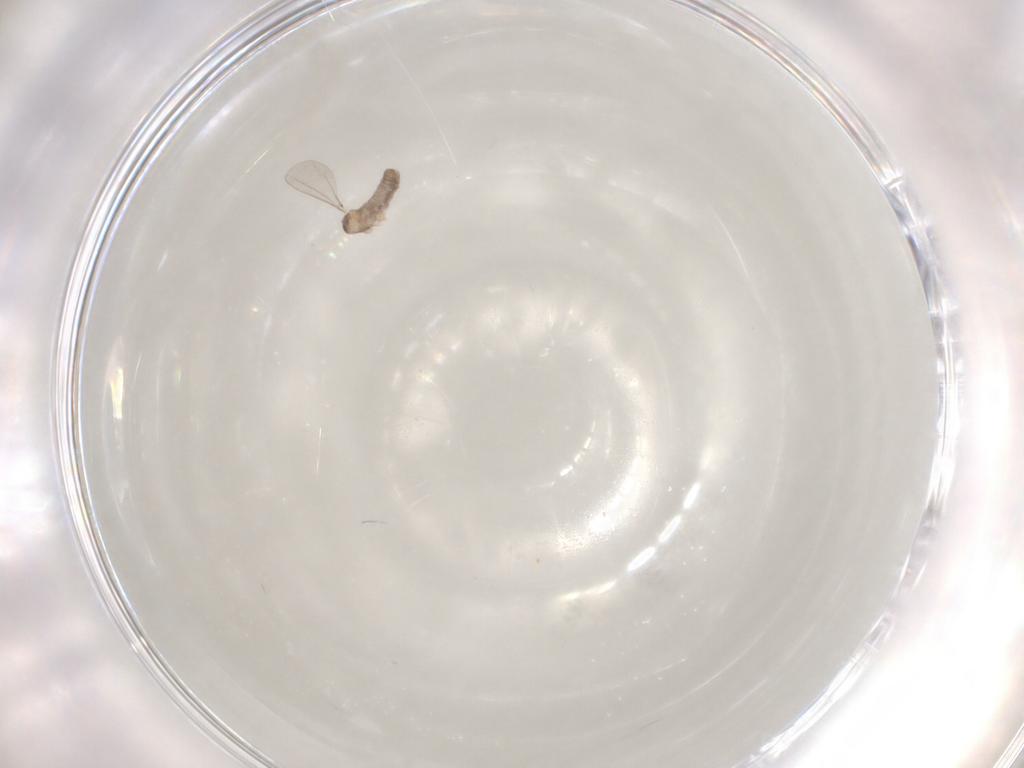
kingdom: Animalia
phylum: Arthropoda
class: Insecta
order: Diptera
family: Cecidomyiidae
